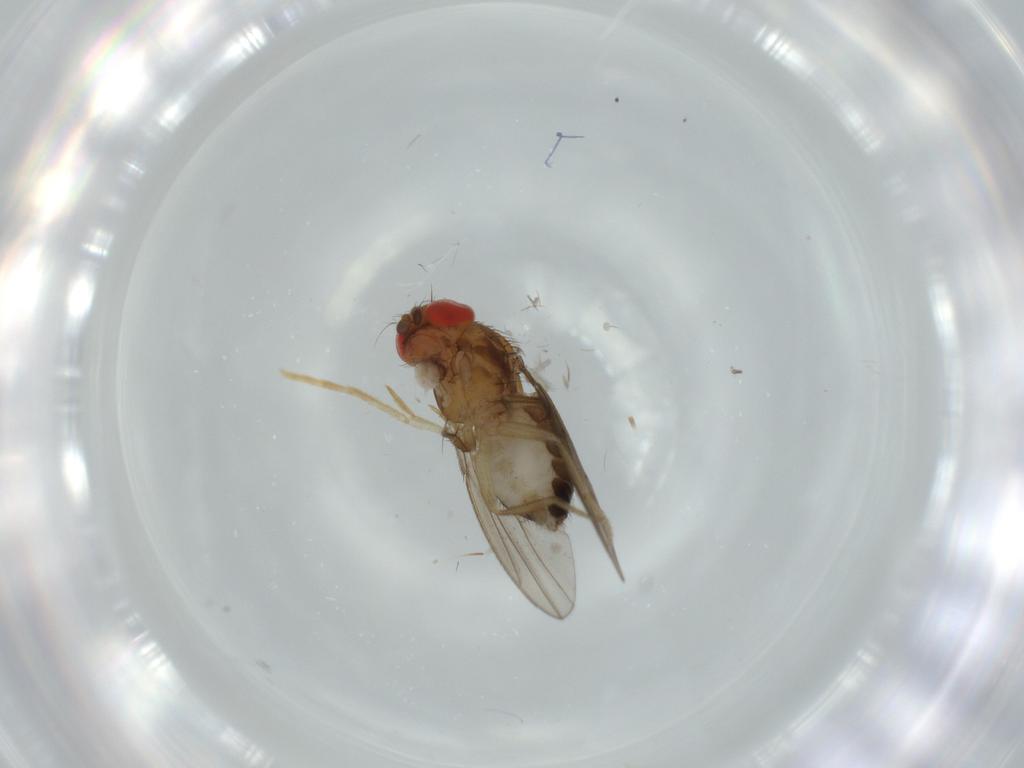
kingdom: Animalia
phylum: Arthropoda
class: Insecta
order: Diptera
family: Drosophilidae
